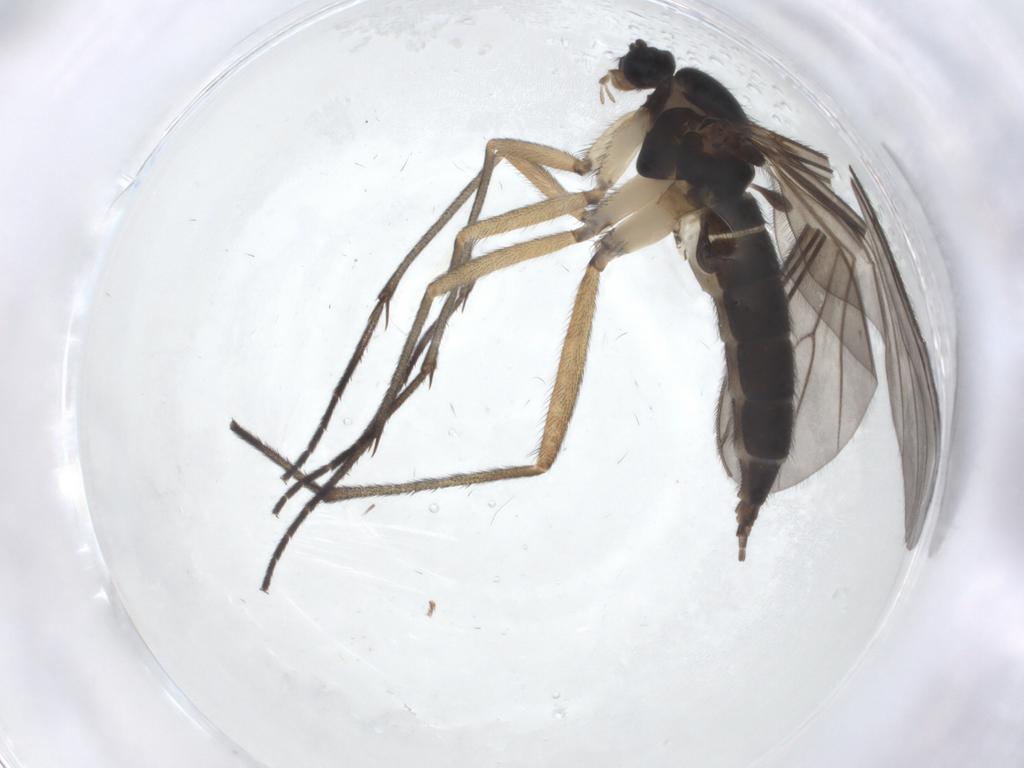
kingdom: Animalia
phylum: Arthropoda
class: Insecta
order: Diptera
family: Sciaridae
